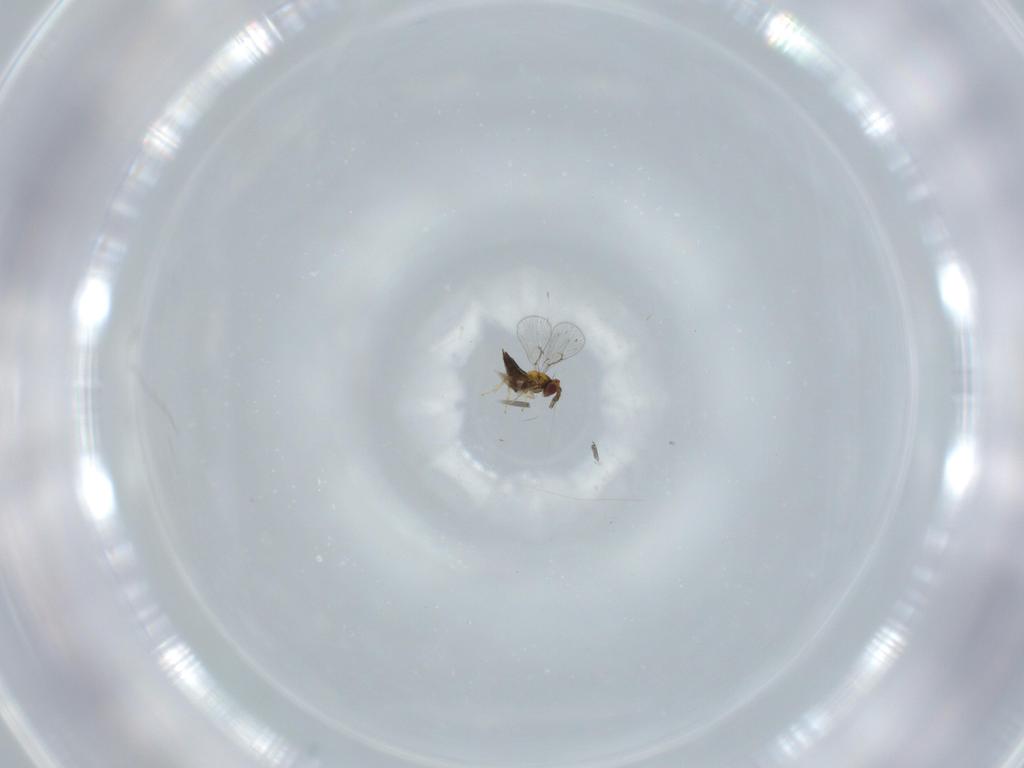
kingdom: Animalia
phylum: Arthropoda
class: Insecta
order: Hymenoptera
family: Trichogrammatidae
